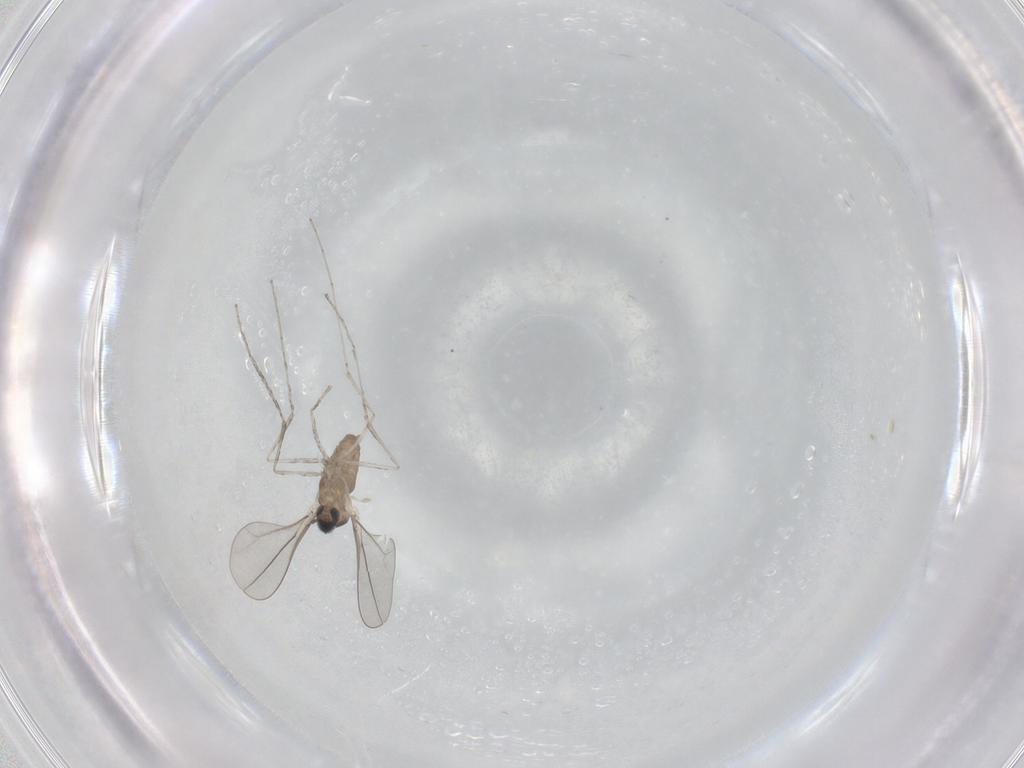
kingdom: Animalia
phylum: Arthropoda
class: Insecta
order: Diptera
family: Cecidomyiidae
